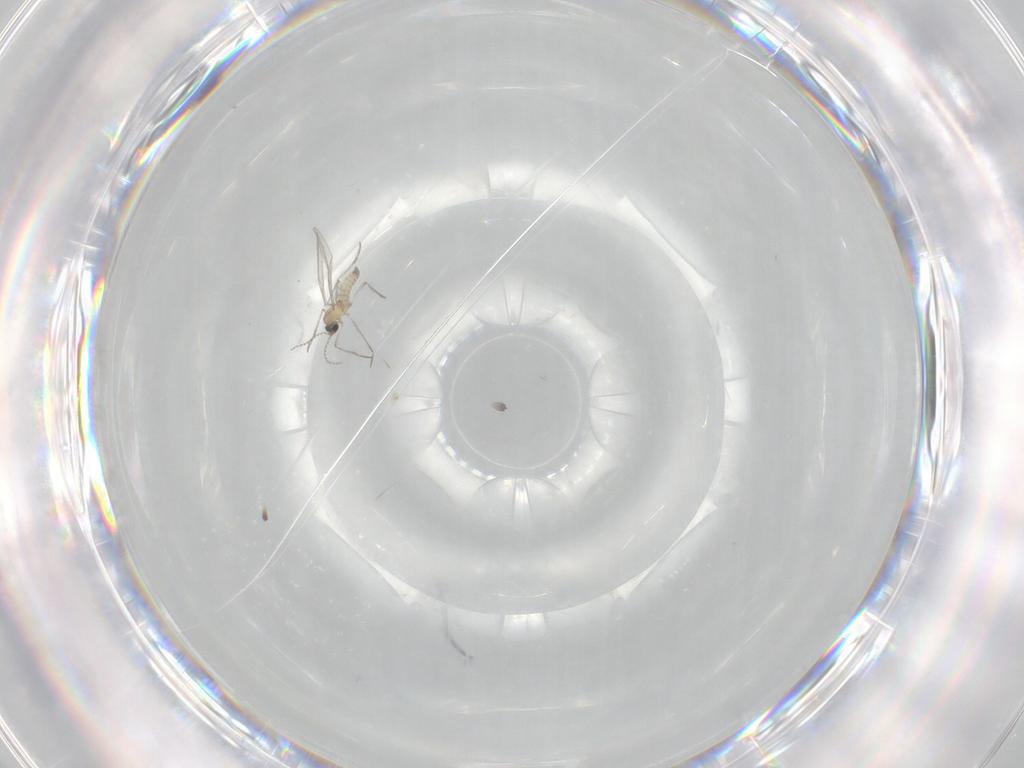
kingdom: Animalia
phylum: Arthropoda
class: Insecta
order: Diptera
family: Cecidomyiidae
